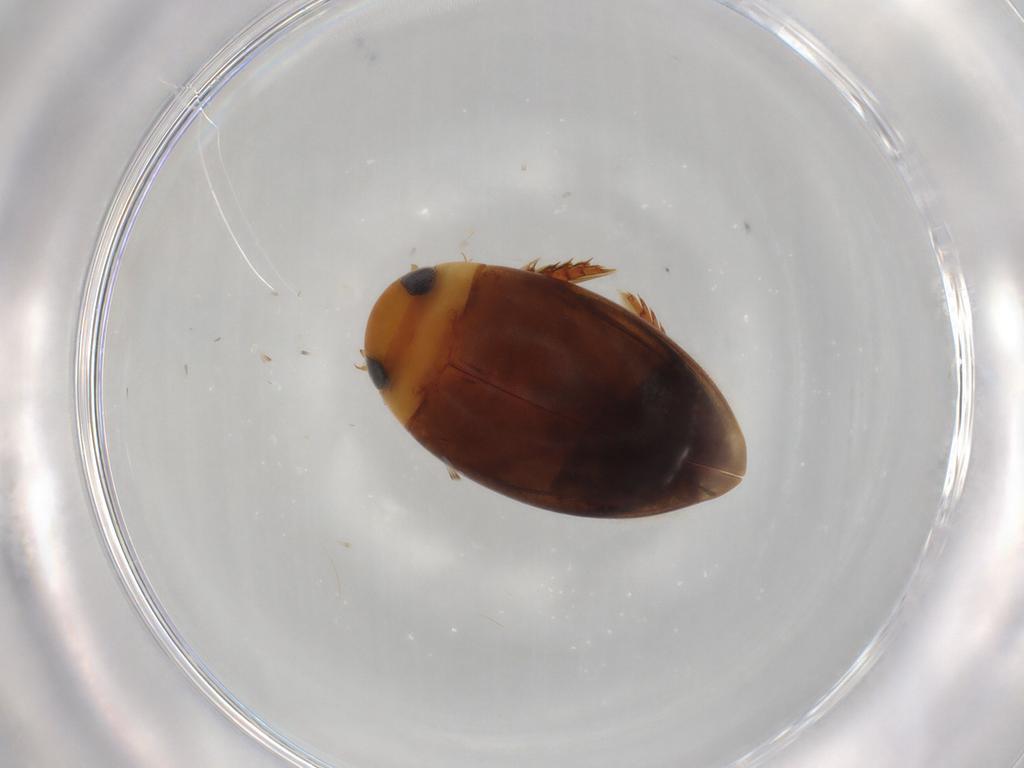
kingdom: Animalia
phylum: Arthropoda
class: Insecta
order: Coleoptera
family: Dytiscidae
